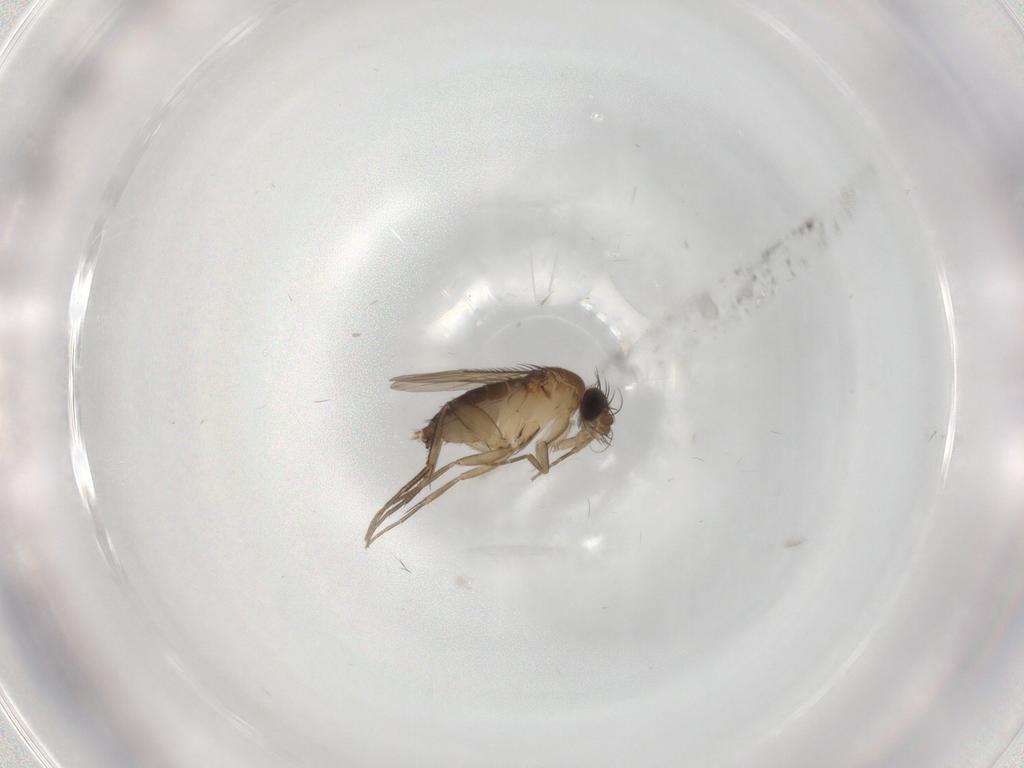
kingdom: Animalia
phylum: Arthropoda
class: Insecta
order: Diptera
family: Phoridae
